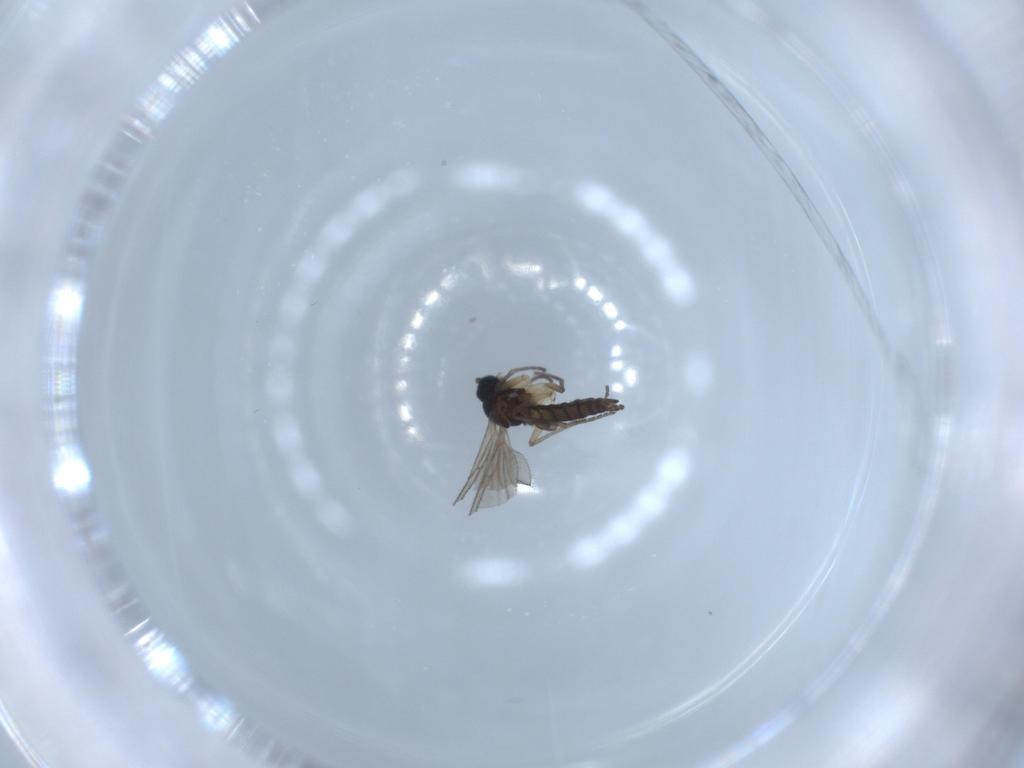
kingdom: Animalia
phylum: Arthropoda
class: Insecta
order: Diptera
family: Sciaridae
